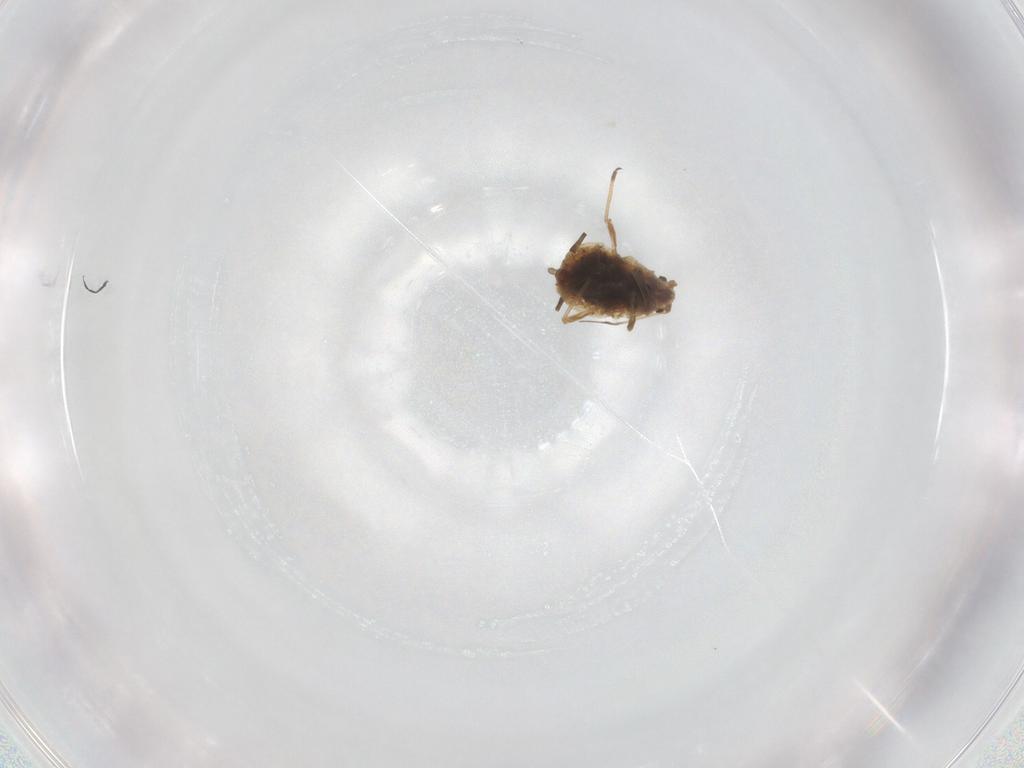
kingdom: Animalia
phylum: Arthropoda
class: Insecta
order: Hemiptera
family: Aphididae
